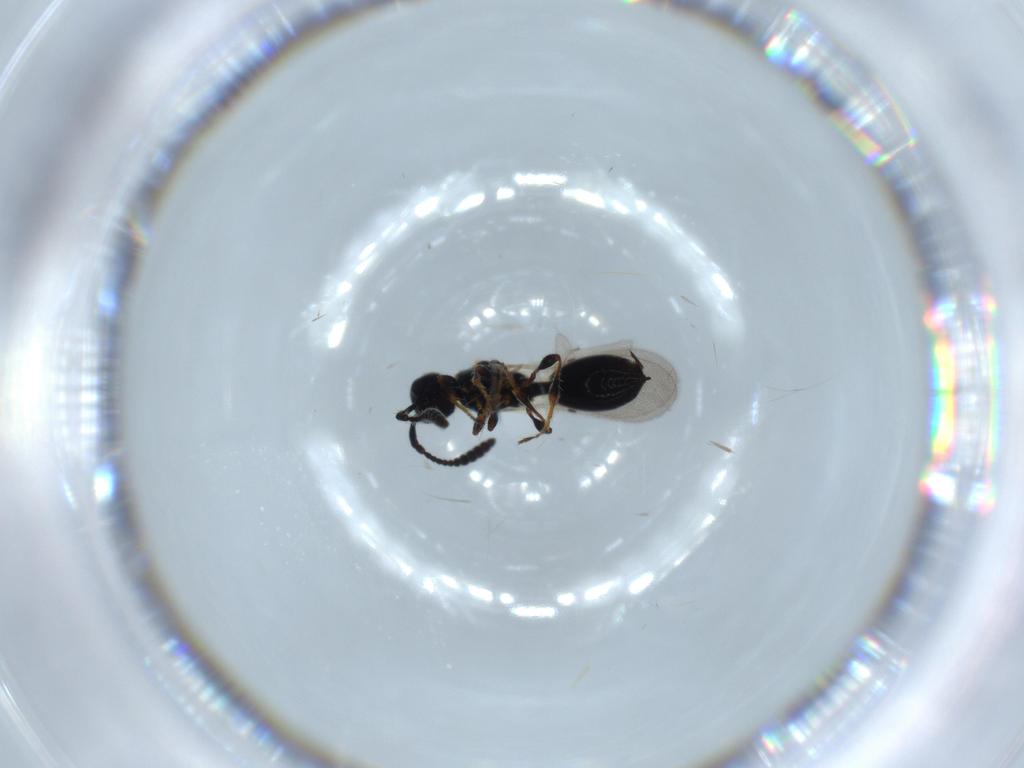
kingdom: Animalia
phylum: Arthropoda
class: Insecta
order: Hymenoptera
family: Diapriidae
